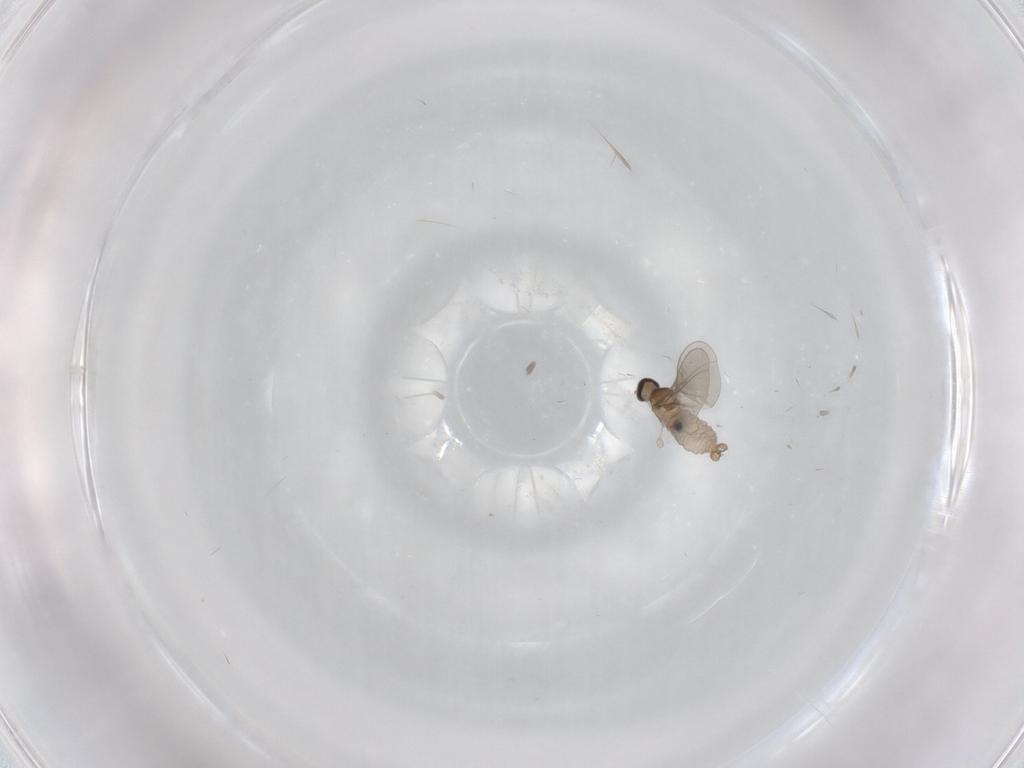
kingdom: Animalia
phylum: Arthropoda
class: Insecta
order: Diptera
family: Cecidomyiidae
